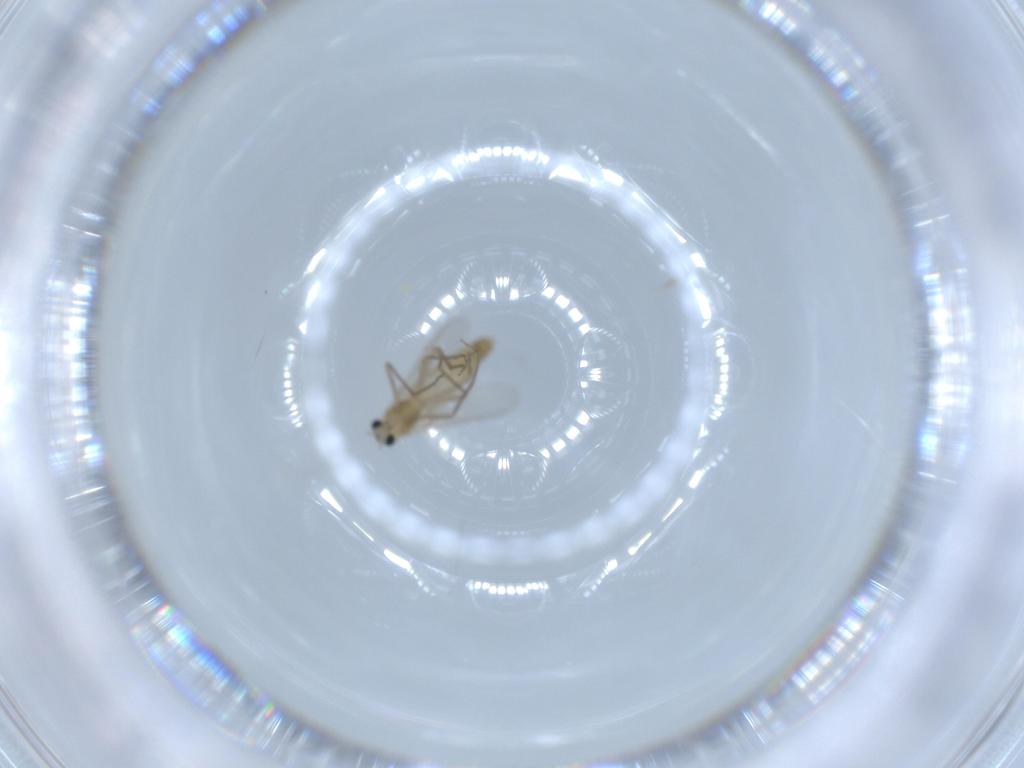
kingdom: Animalia
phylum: Arthropoda
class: Insecta
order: Diptera
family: Chironomidae
